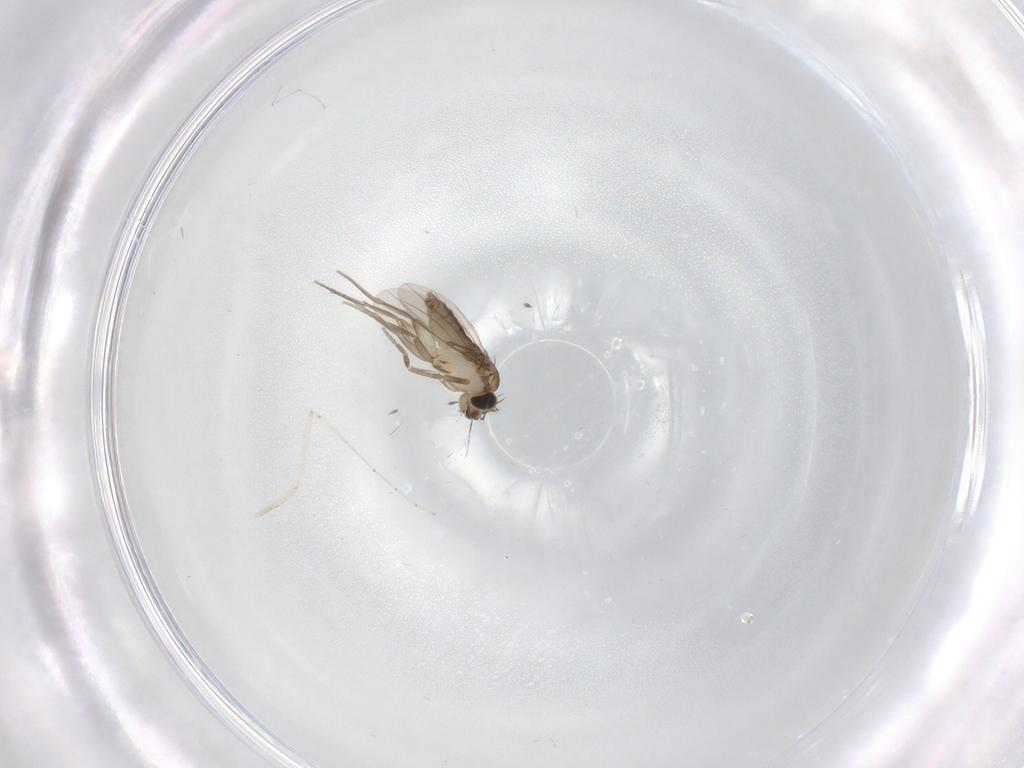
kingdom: Animalia
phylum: Arthropoda
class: Insecta
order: Diptera
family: Phoridae
